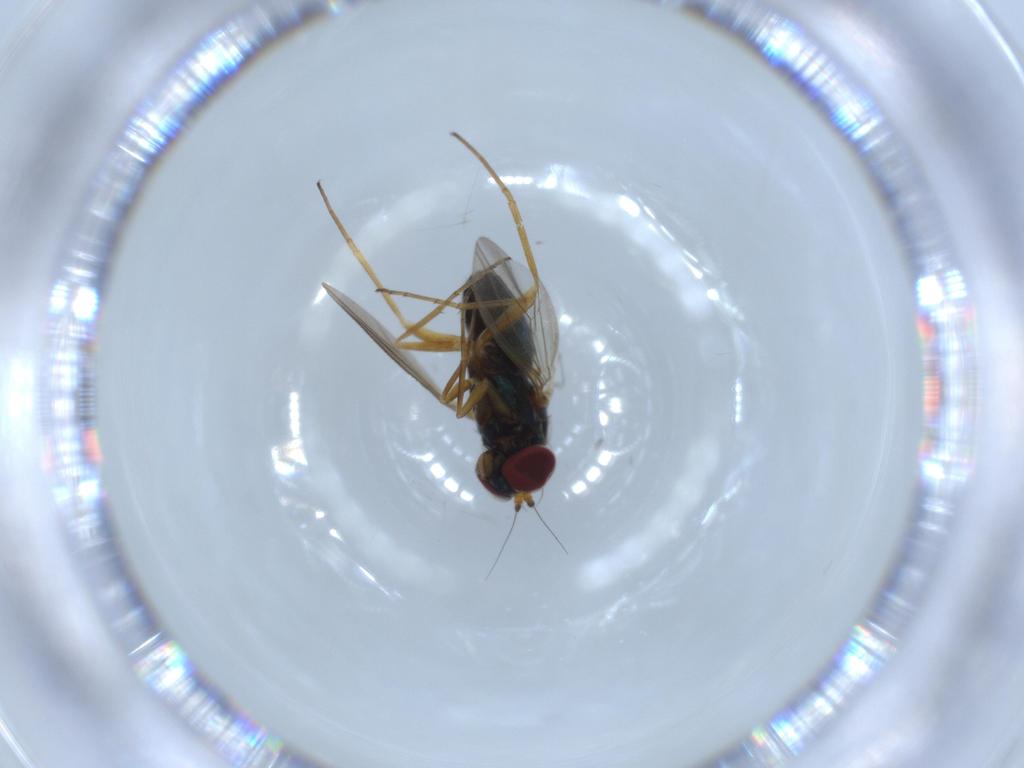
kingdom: Animalia
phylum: Arthropoda
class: Insecta
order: Diptera
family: Dolichopodidae
